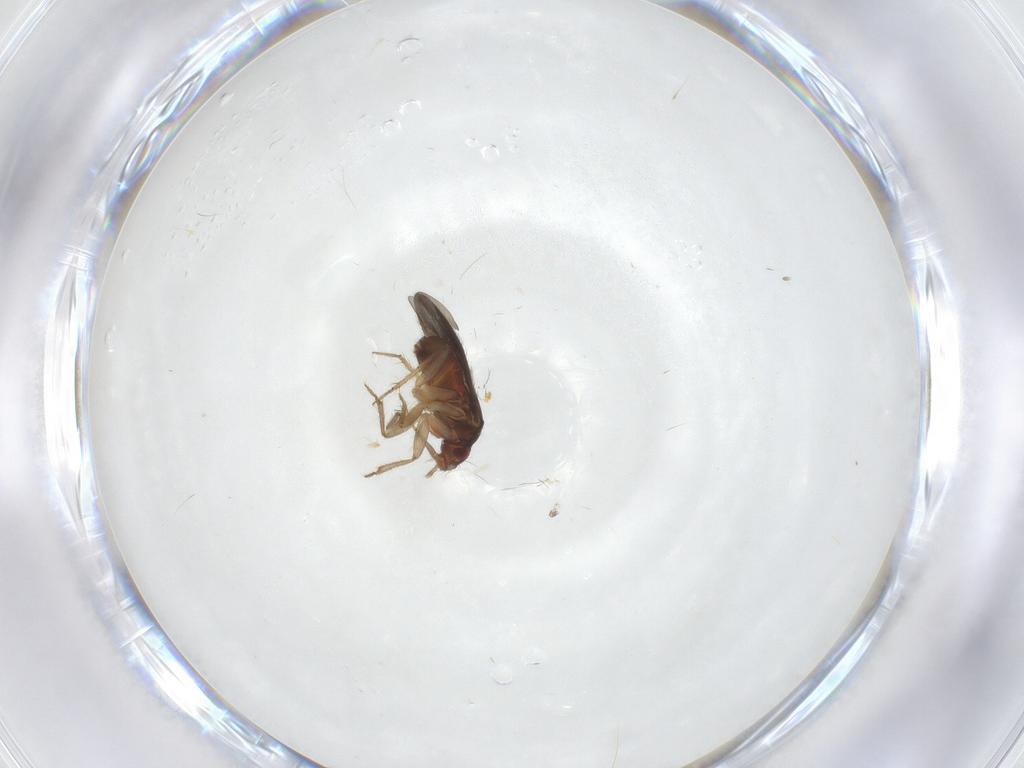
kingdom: Animalia
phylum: Arthropoda
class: Insecta
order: Hemiptera
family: Ceratocombidae
